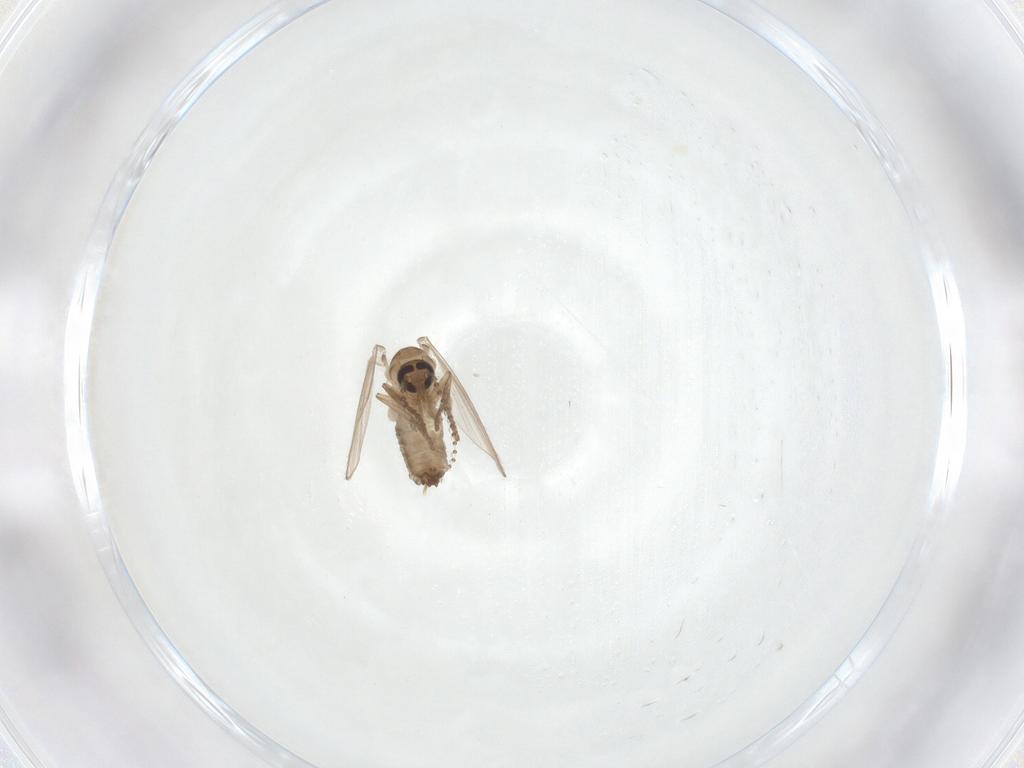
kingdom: Animalia
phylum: Arthropoda
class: Insecta
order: Diptera
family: Psychodidae
